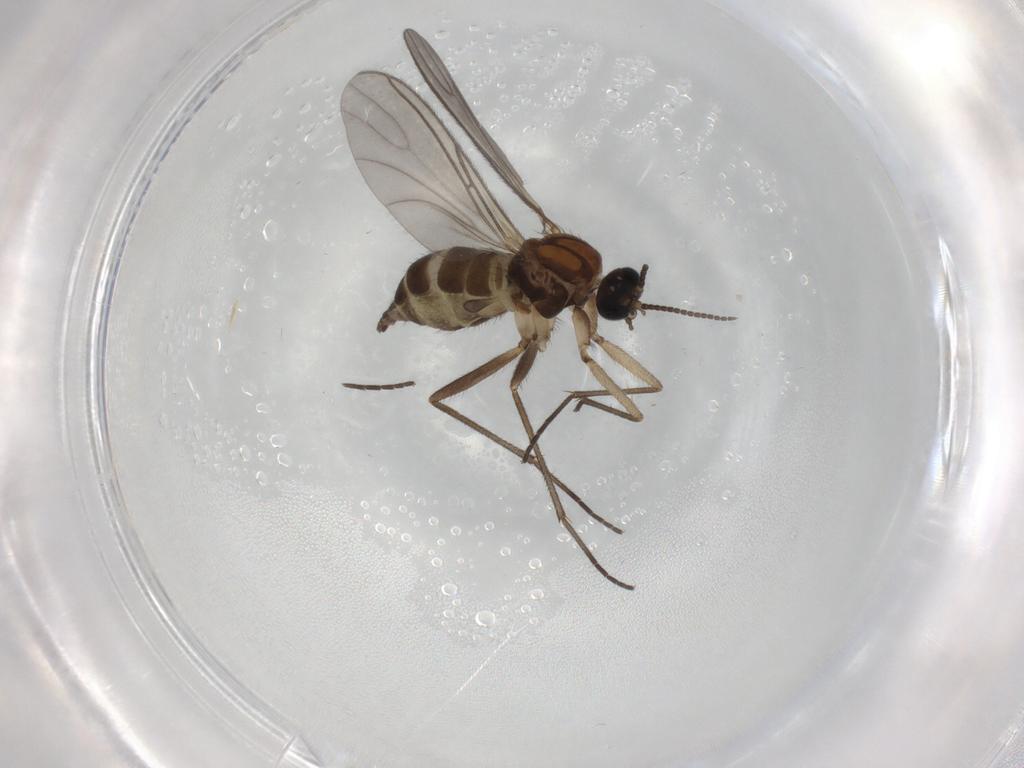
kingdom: Animalia
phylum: Arthropoda
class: Insecta
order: Diptera
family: Sciaridae
